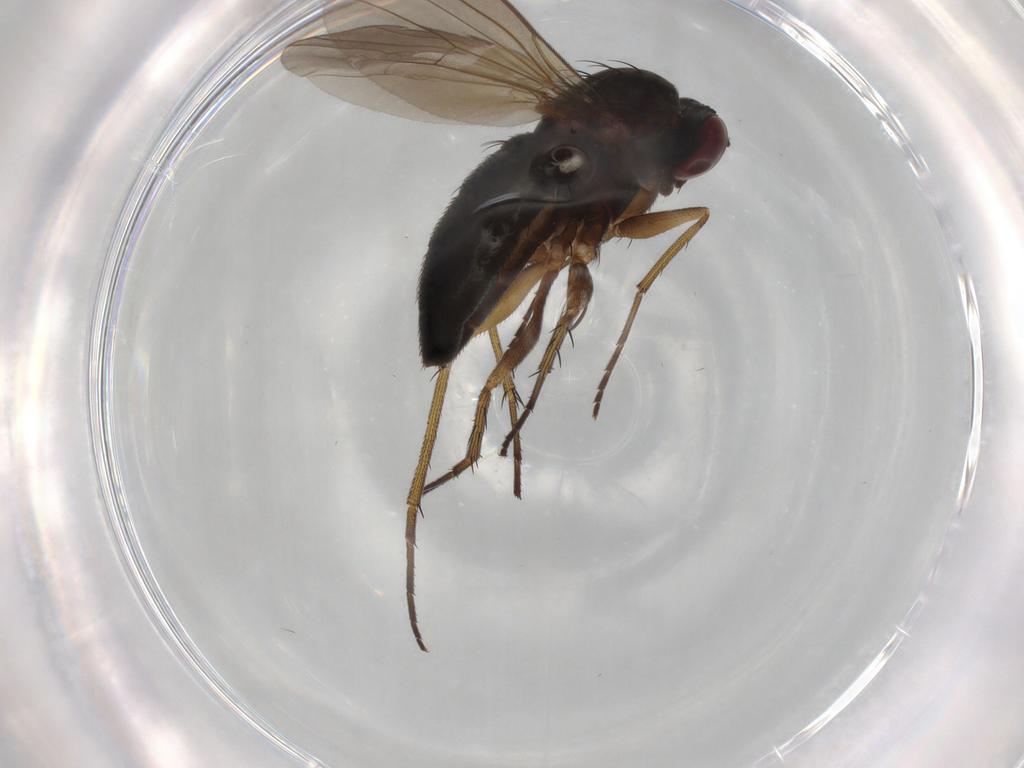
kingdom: Animalia
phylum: Arthropoda
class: Insecta
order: Diptera
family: Dolichopodidae
